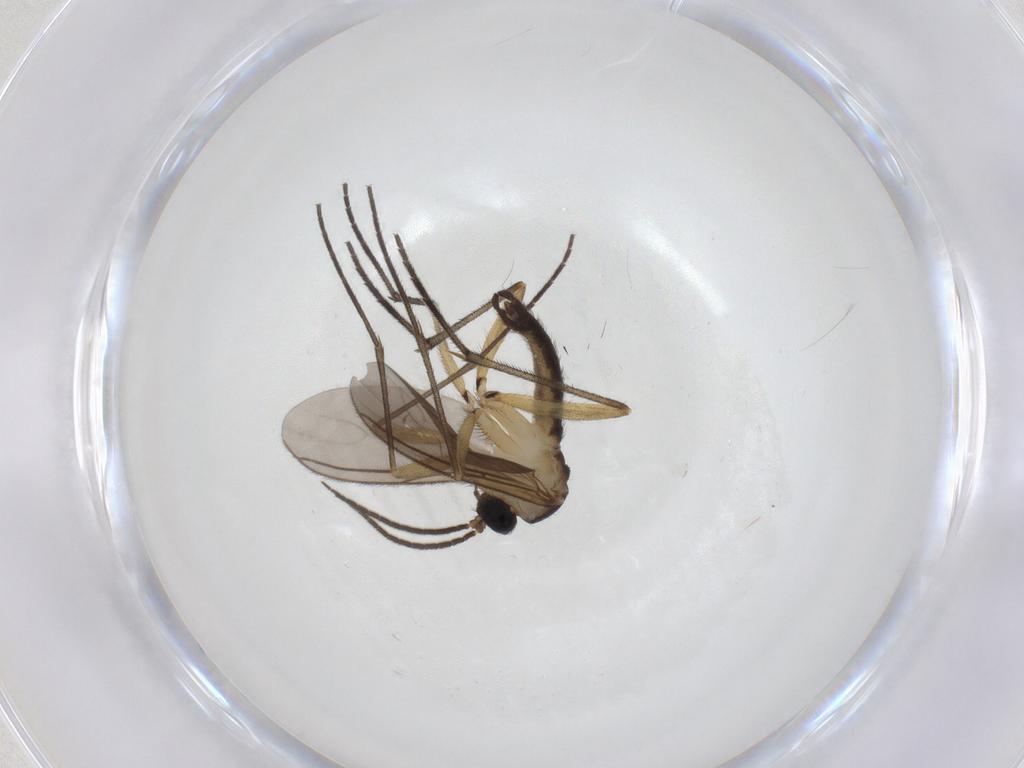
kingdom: Animalia
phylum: Arthropoda
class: Insecta
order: Diptera
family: Sciaridae
